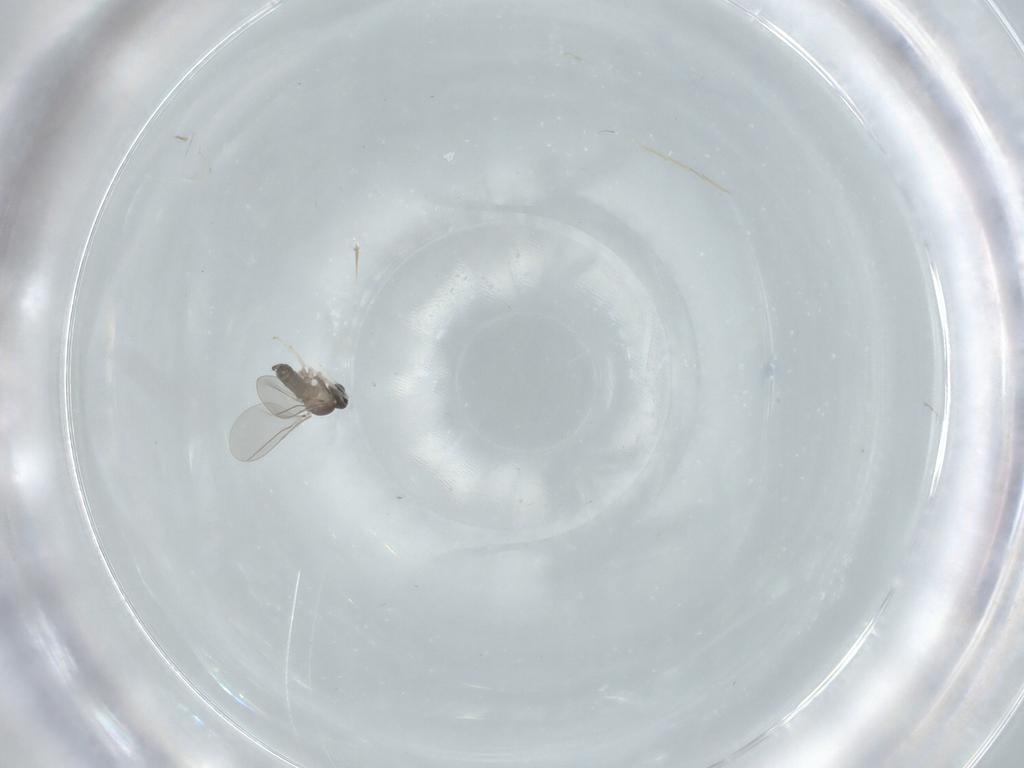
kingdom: Animalia
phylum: Arthropoda
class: Insecta
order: Diptera
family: Cecidomyiidae
